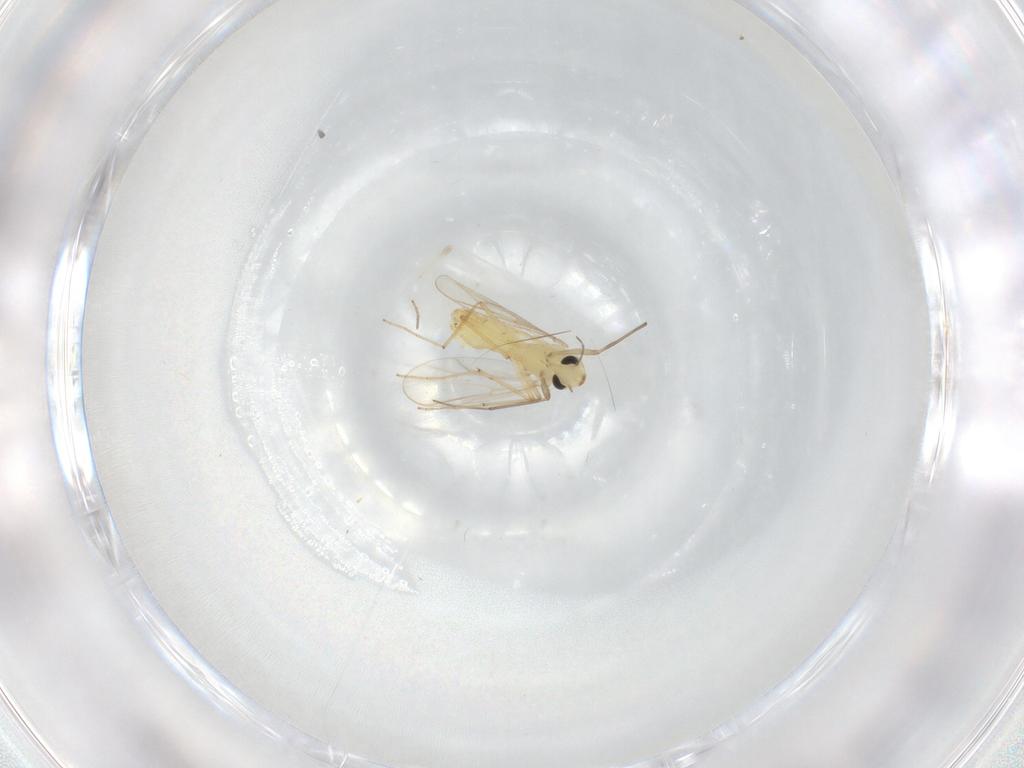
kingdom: Animalia
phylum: Arthropoda
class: Insecta
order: Diptera
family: Chironomidae
